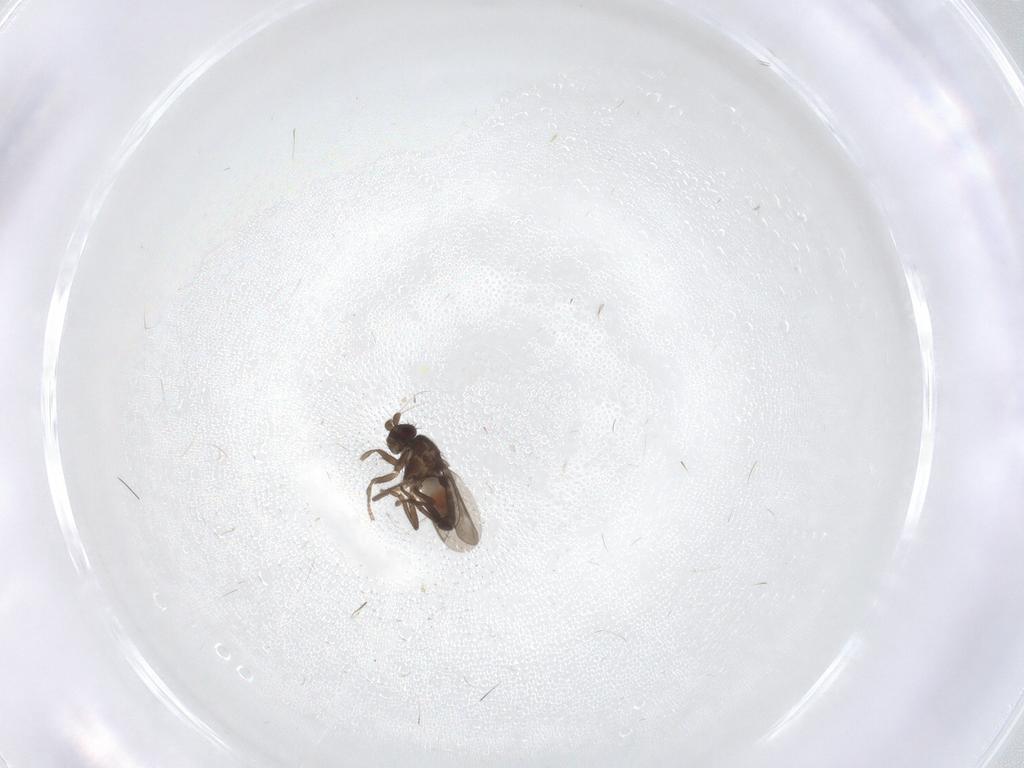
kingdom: Animalia
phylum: Arthropoda
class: Insecta
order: Diptera
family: Sphaeroceridae
